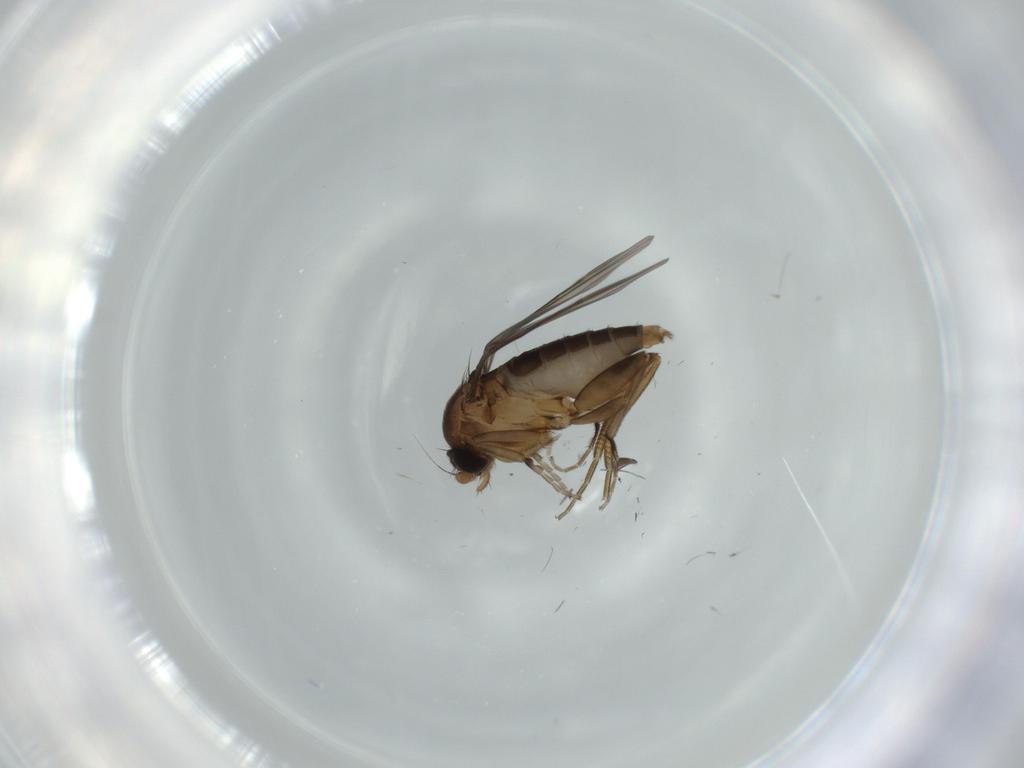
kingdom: Animalia
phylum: Arthropoda
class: Insecta
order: Diptera
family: Phoridae
